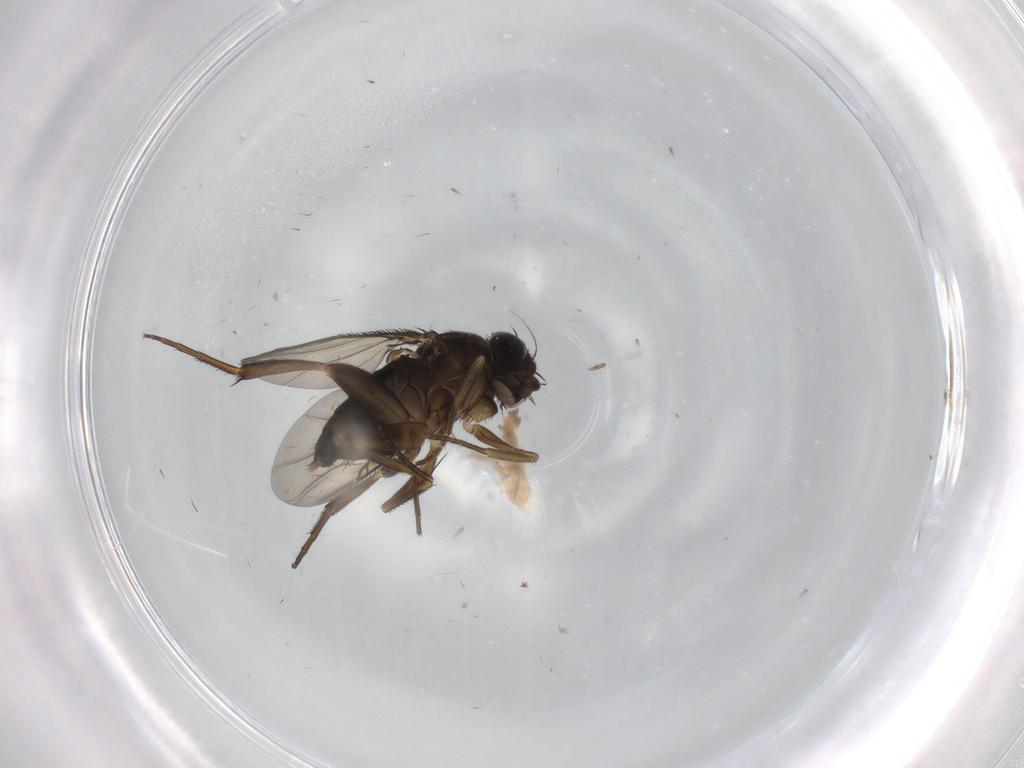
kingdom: Animalia
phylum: Arthropoda
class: Insecta
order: Diptera
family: Phoridae
